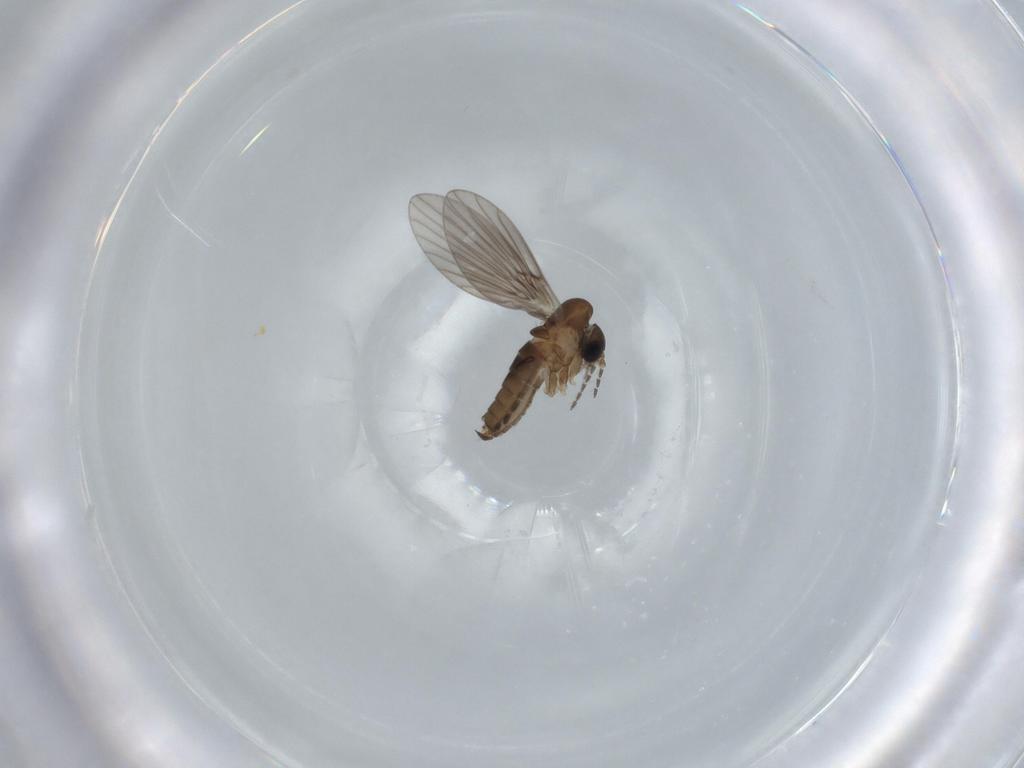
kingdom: Animalia
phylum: Arthropoda
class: Insecta
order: Diptera
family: Psychodidae
